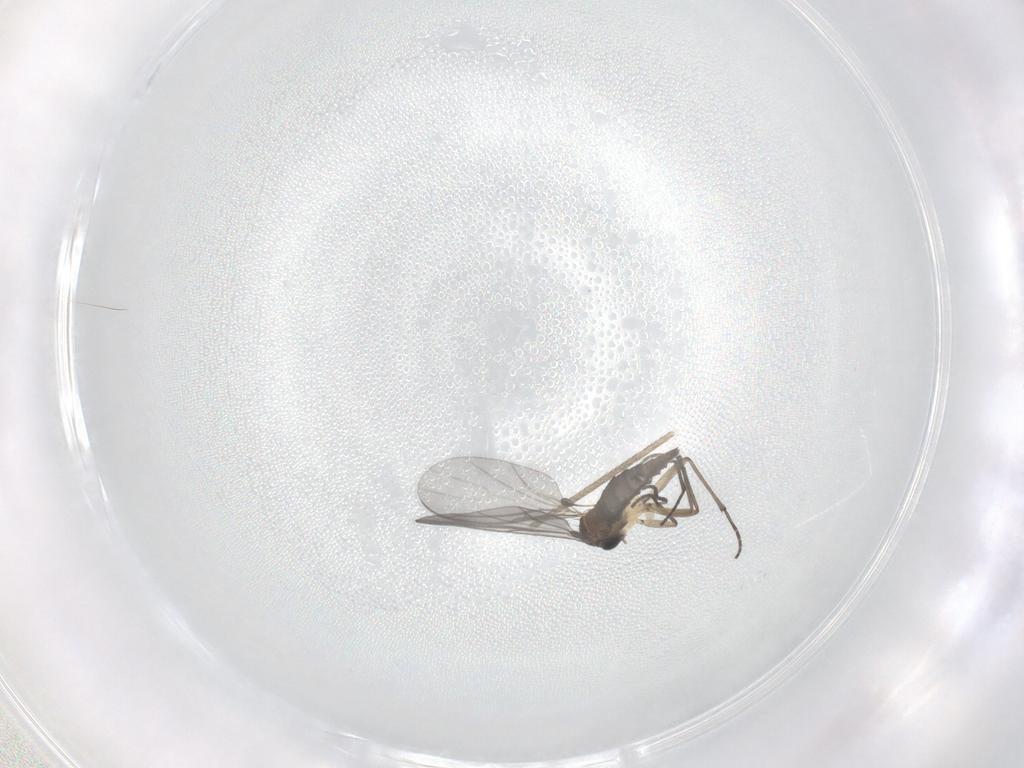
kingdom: Animalia
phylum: Arthropoda
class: Insecta
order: Diptera
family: Sciaridae
